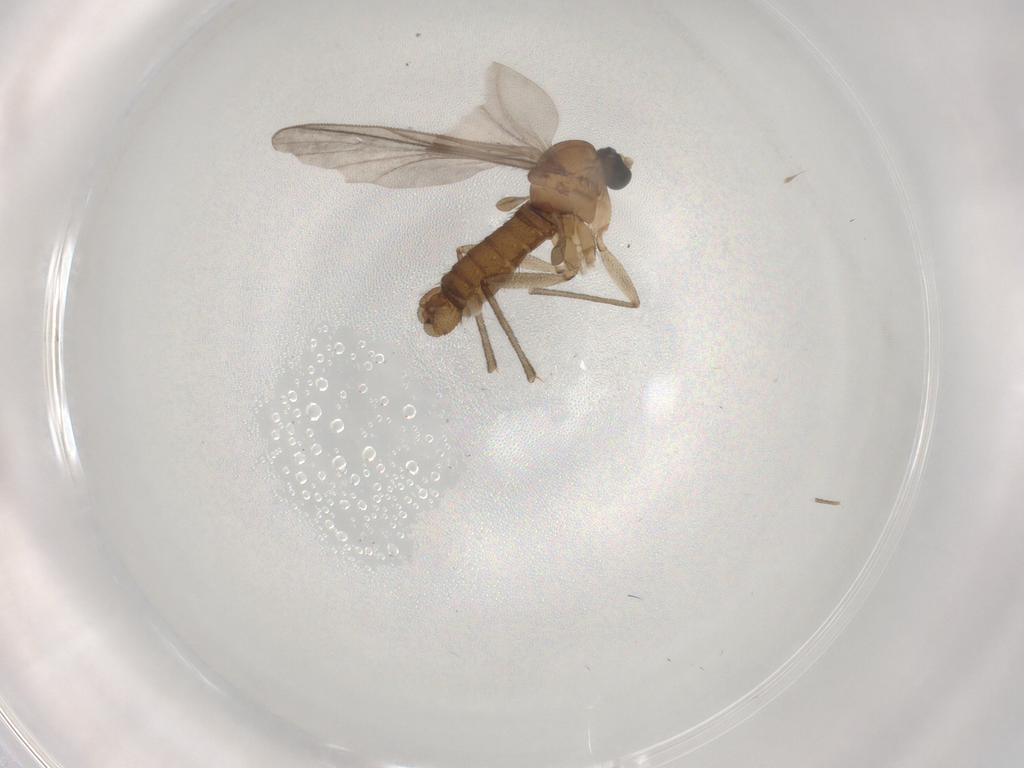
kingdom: Animalia
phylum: Arthropoda
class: Insecta
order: Diptera
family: Sciaridae
